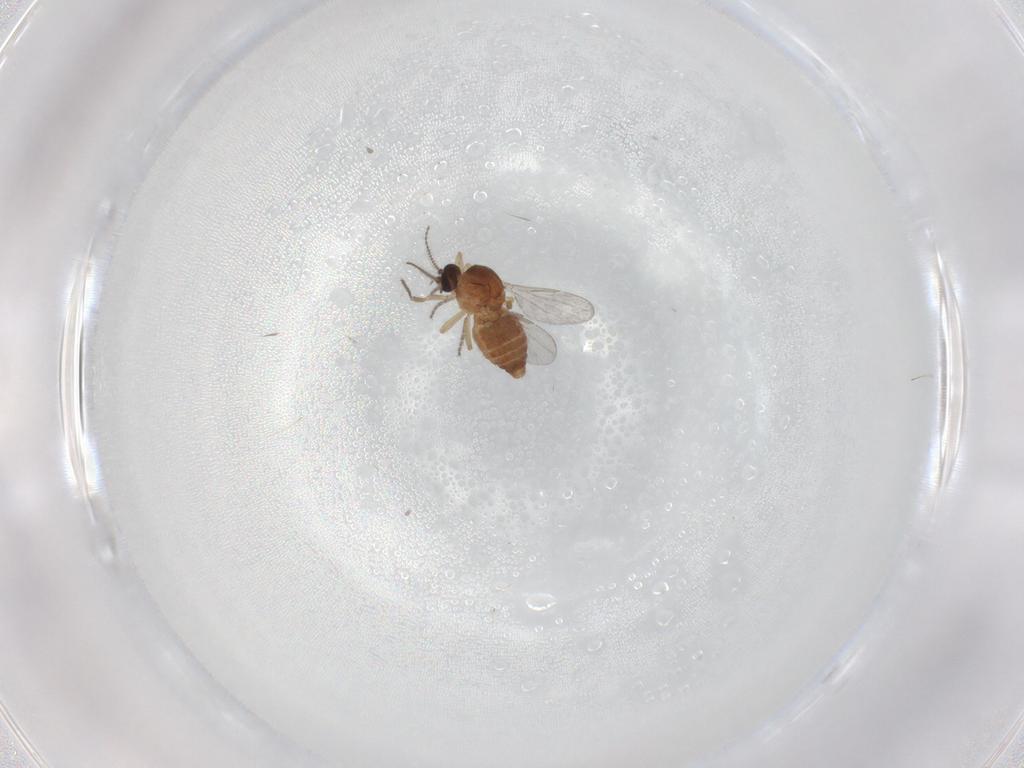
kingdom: Animalia
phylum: Arthropoda
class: Insecta
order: Diptera
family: Ceratopogonidae
